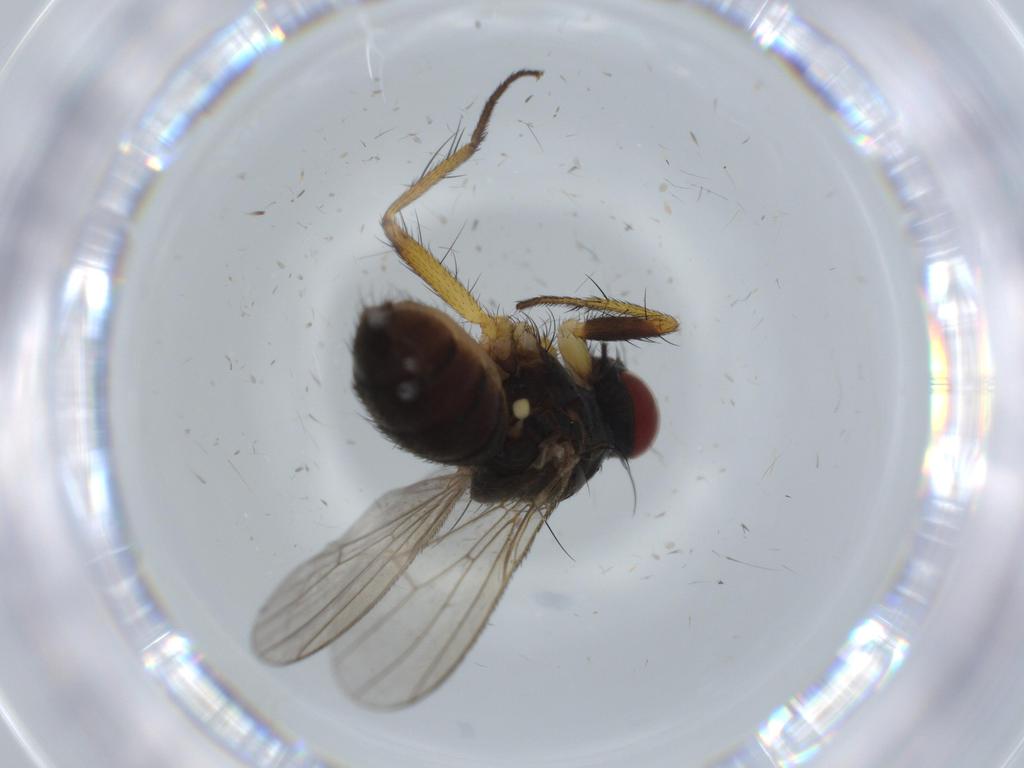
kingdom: Animalia
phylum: Arthropoda
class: Insecta
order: Diptera
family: Muscidae
